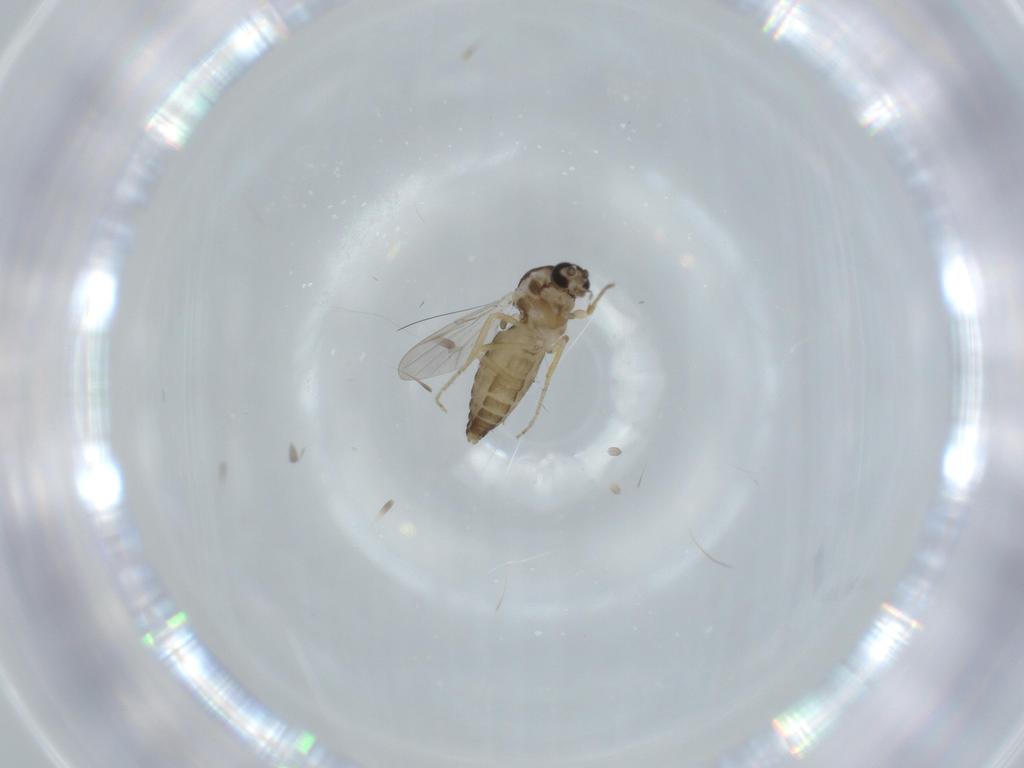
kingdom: Animalia
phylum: Arthropoda
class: Insecta
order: Diptera
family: Ceratopogonidae
